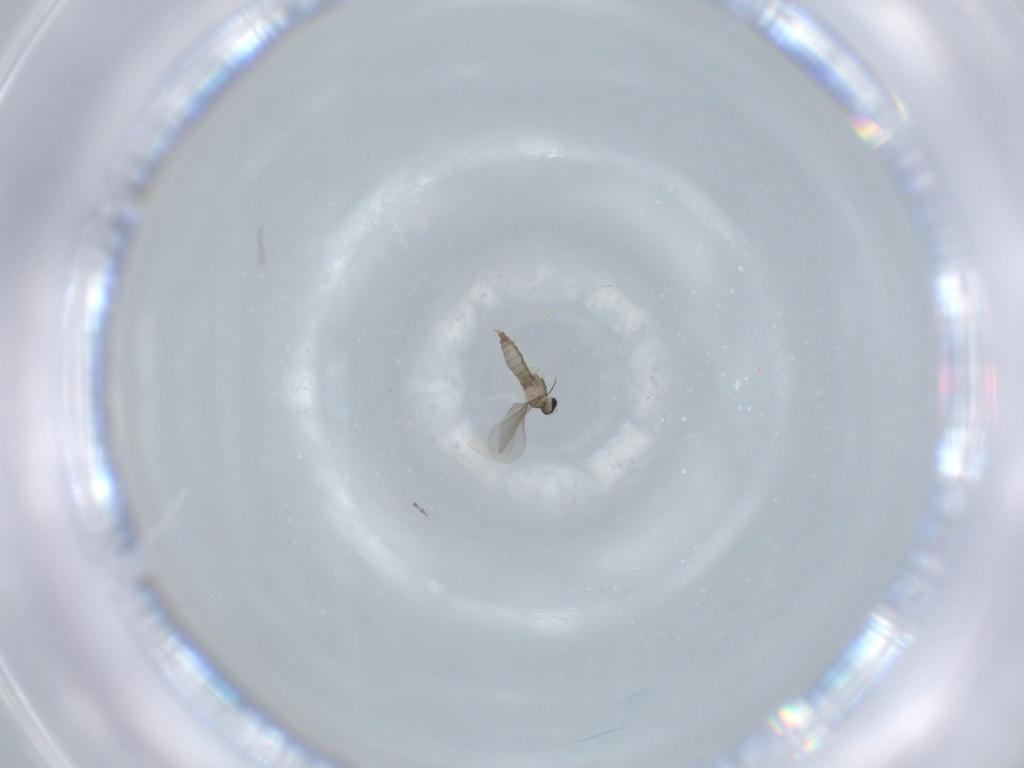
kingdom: Animalia
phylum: Arthropoda
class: Insecta
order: Diptera
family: Cecidomyiidae
